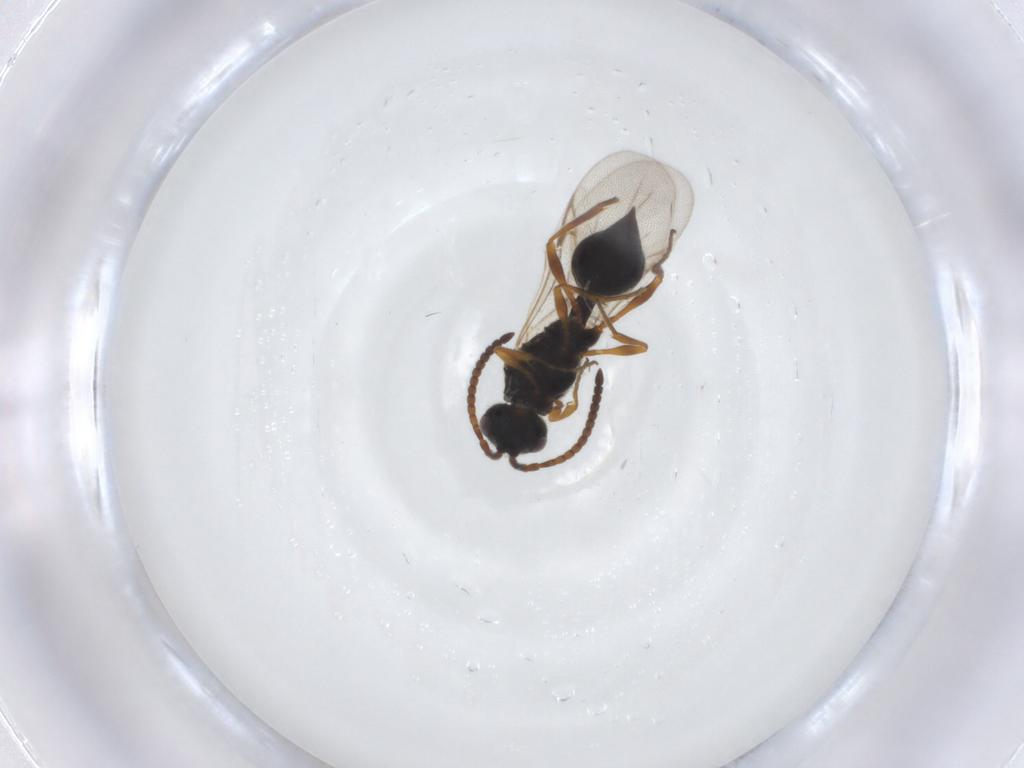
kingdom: Animalia
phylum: Arthropoda
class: Insecta
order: Hymenoptera
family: Diapriidae
